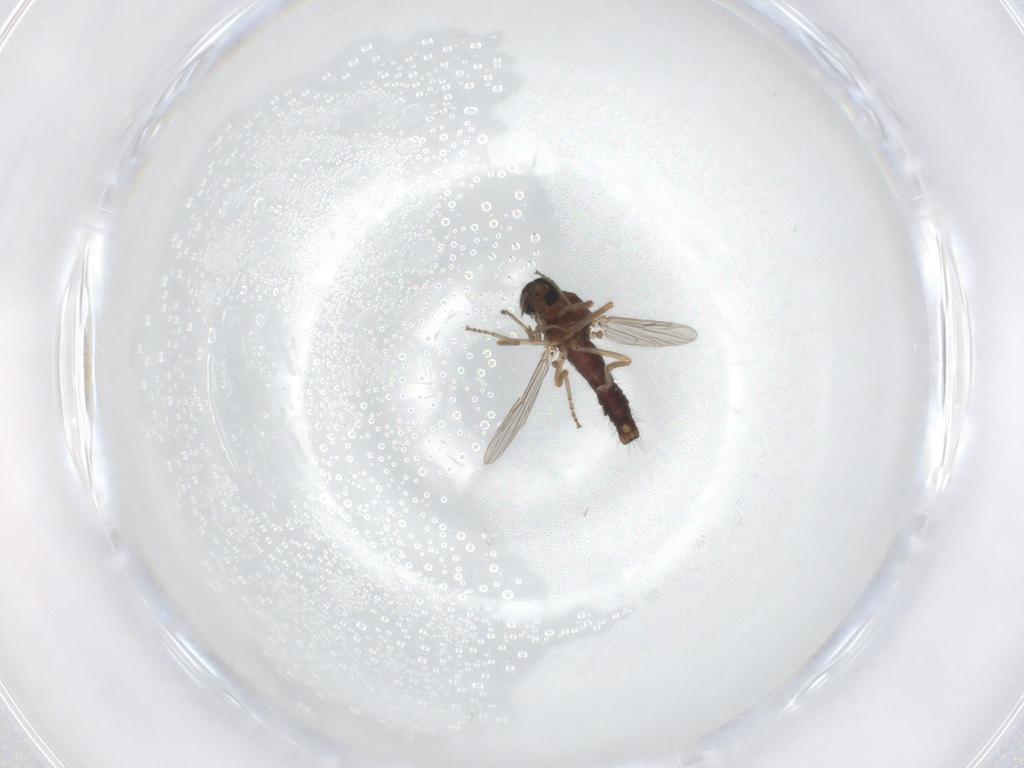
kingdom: Animalia
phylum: Arthropoda
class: Insecta
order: Diptera
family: Ceratopogonidae
